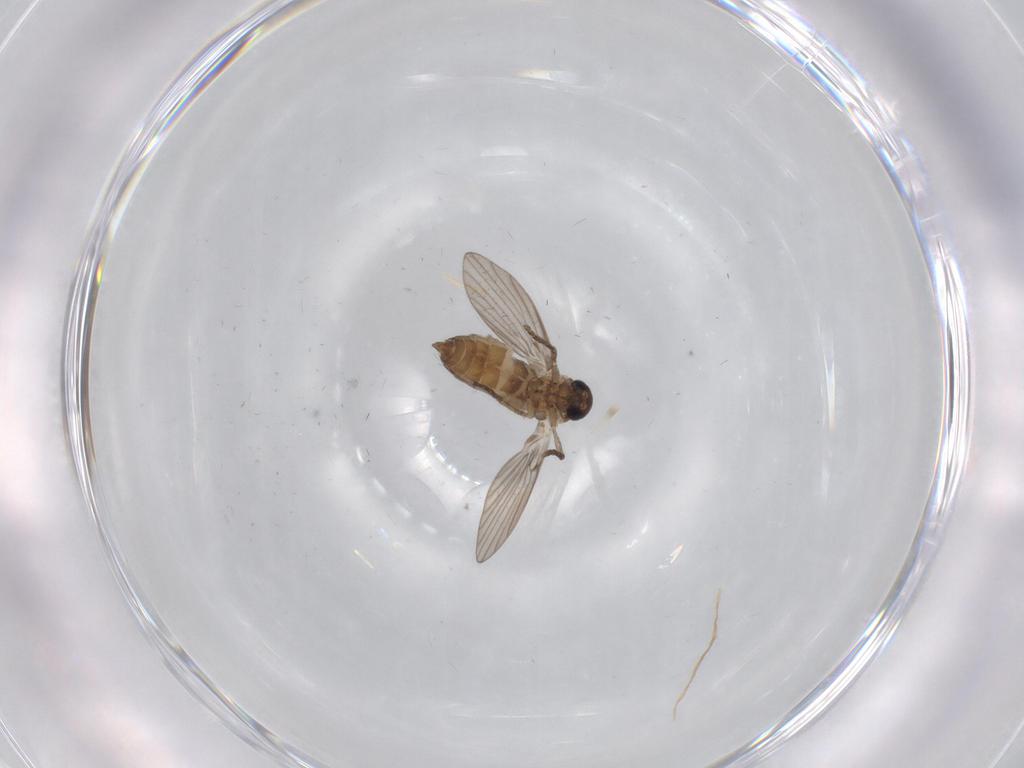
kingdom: Animalia
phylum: Arthropoda
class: Insecta
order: Diptera
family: Psychodidae
